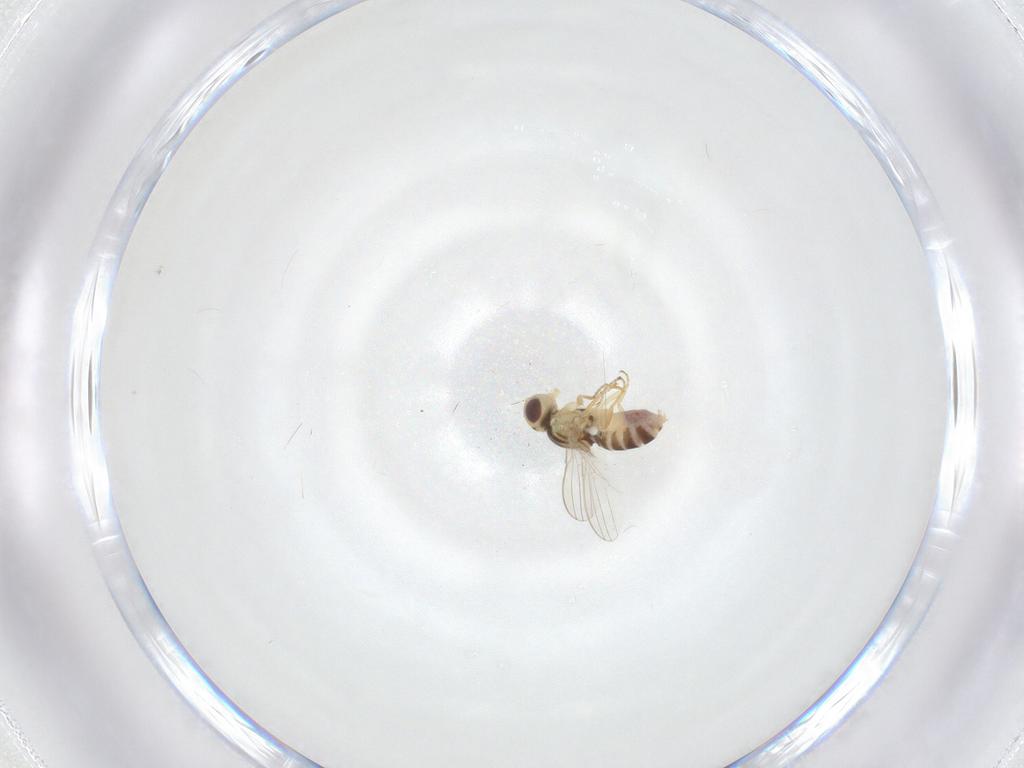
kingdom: Animalia
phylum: Arthropoda
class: Insecta
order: Diptera
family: Chyromyidae
